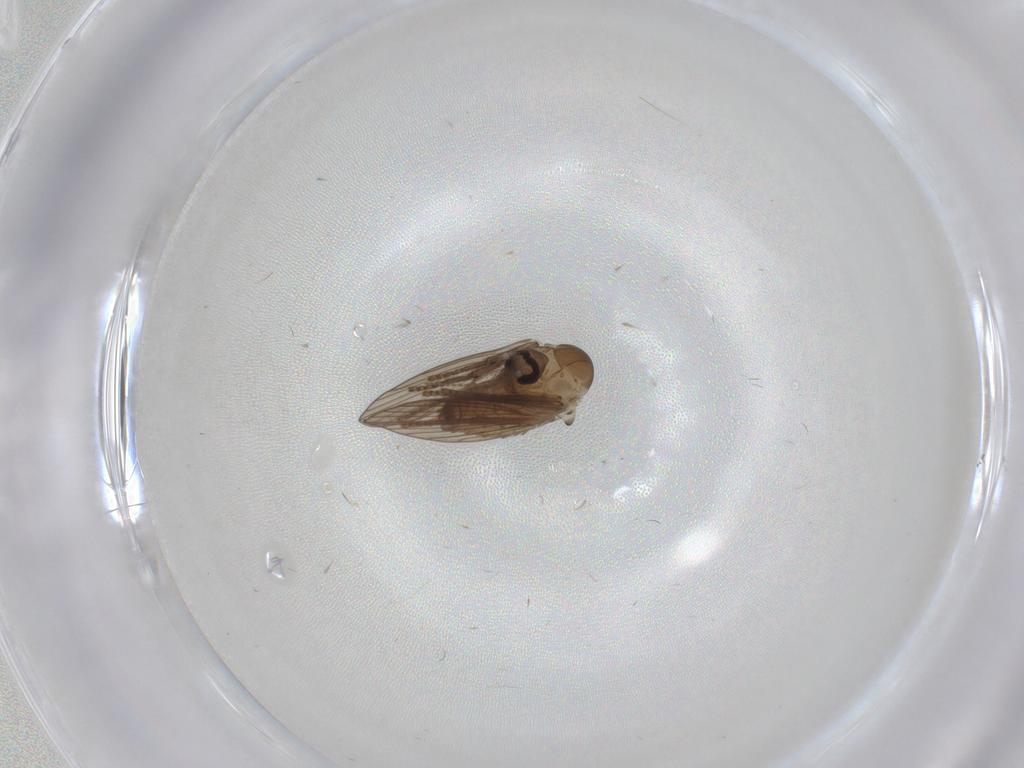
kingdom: Animalia
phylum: Arthropoda
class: Insecta
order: Diptera
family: Psychodidae
